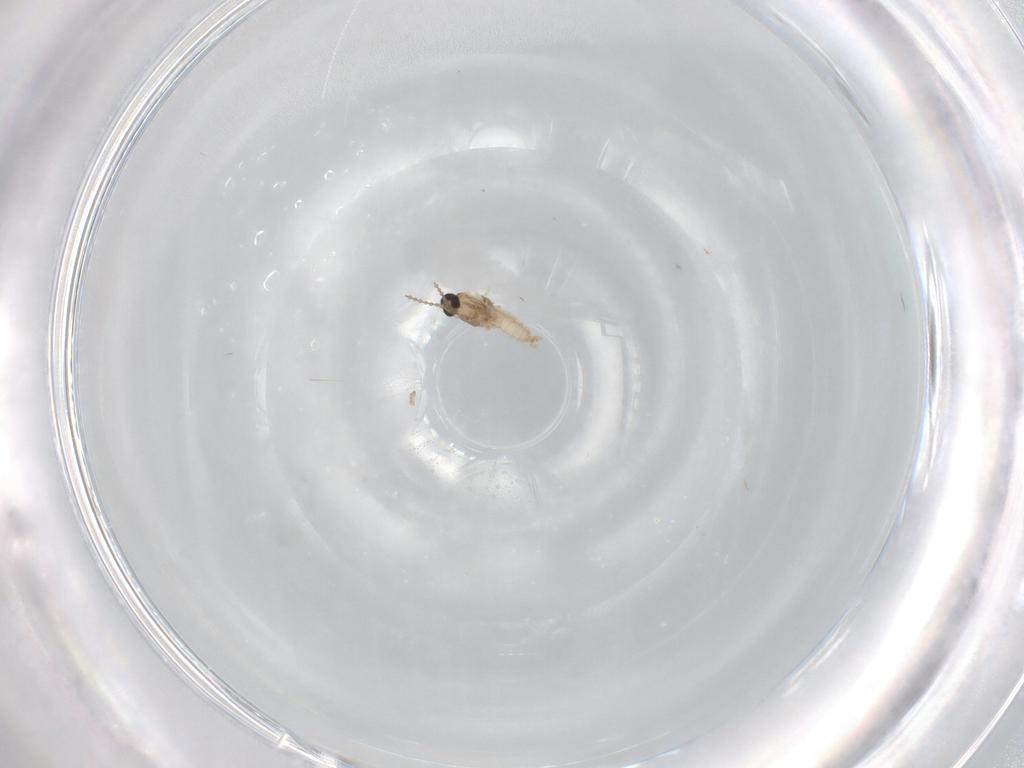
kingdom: Animalia
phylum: Arthropoda
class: Insecta
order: Diptera
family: Cecidomyiidae
